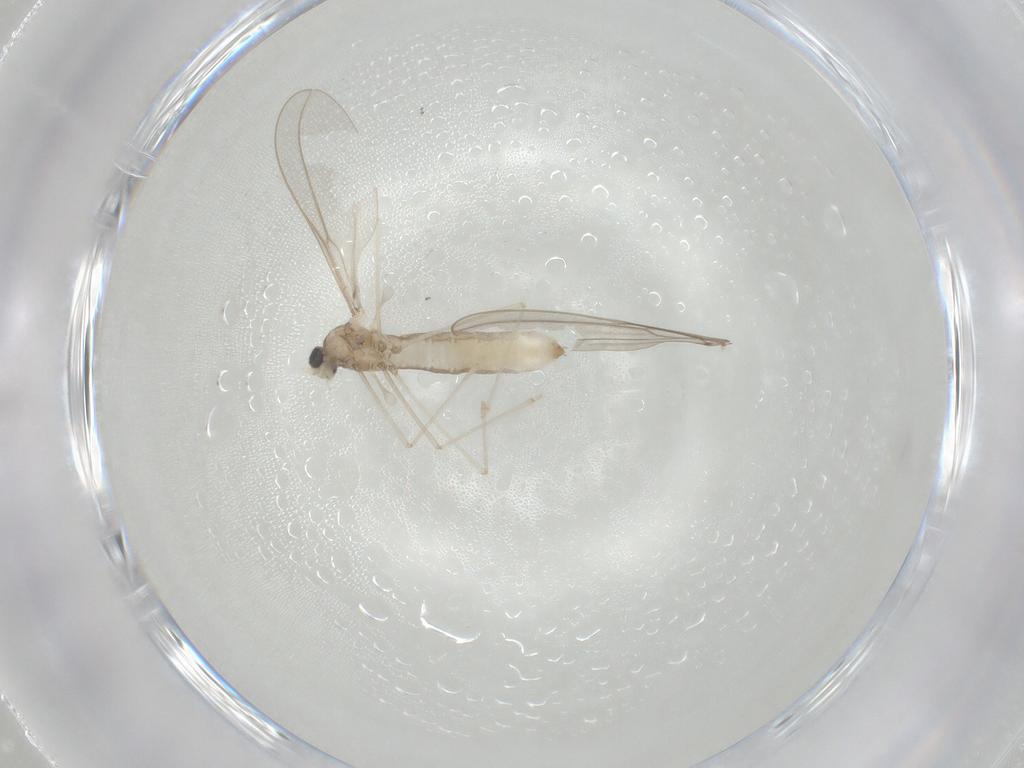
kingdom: Animalia
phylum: Arthropoda
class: Insecta
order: Diptera
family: Cecidomyiidae
